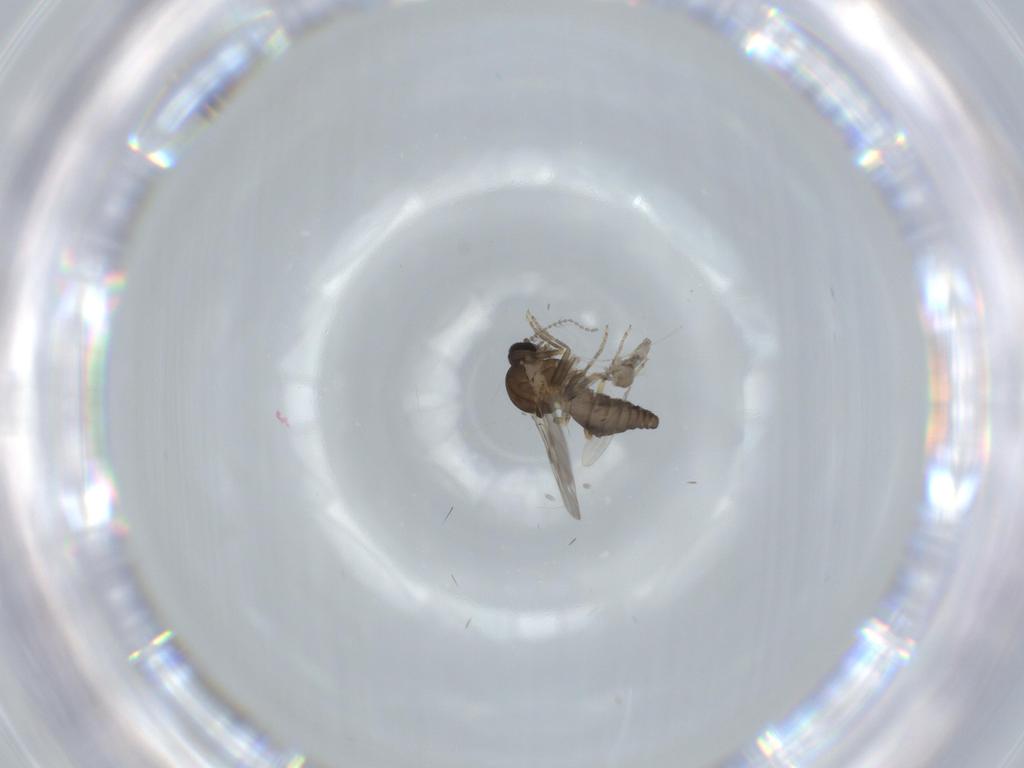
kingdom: Animalia
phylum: Arthropoda
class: Insecta
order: Diptera
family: Ceratopogonidae
